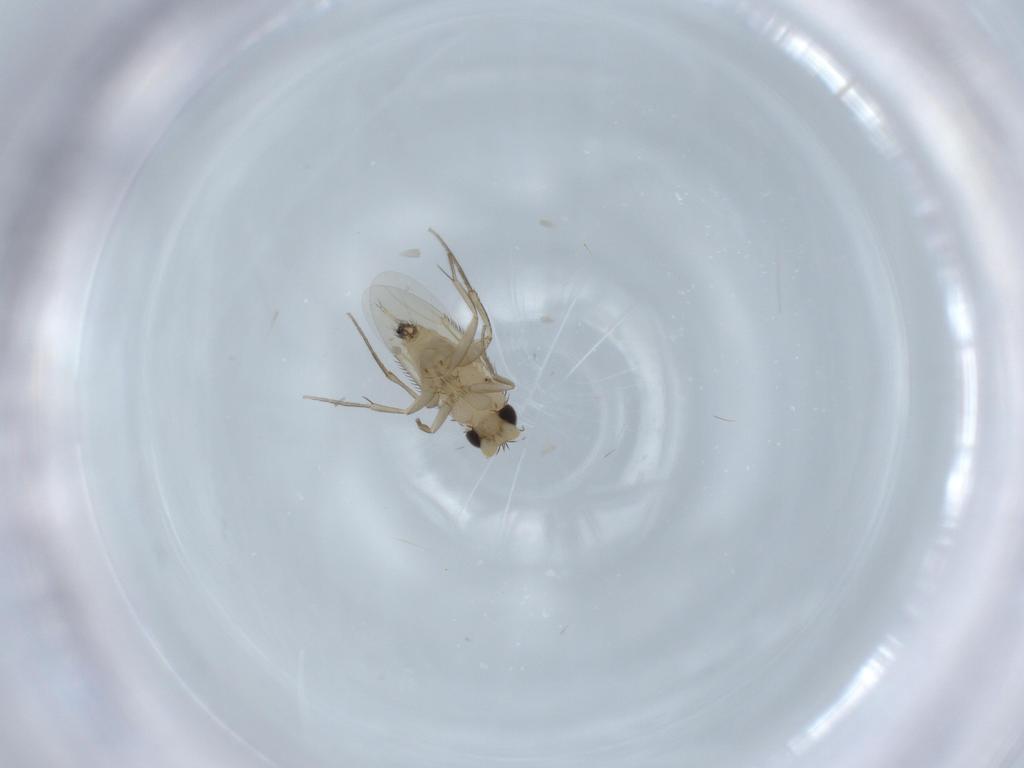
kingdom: Animalia
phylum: Arthropoda
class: Insecta
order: Diptera
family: Phoridae
